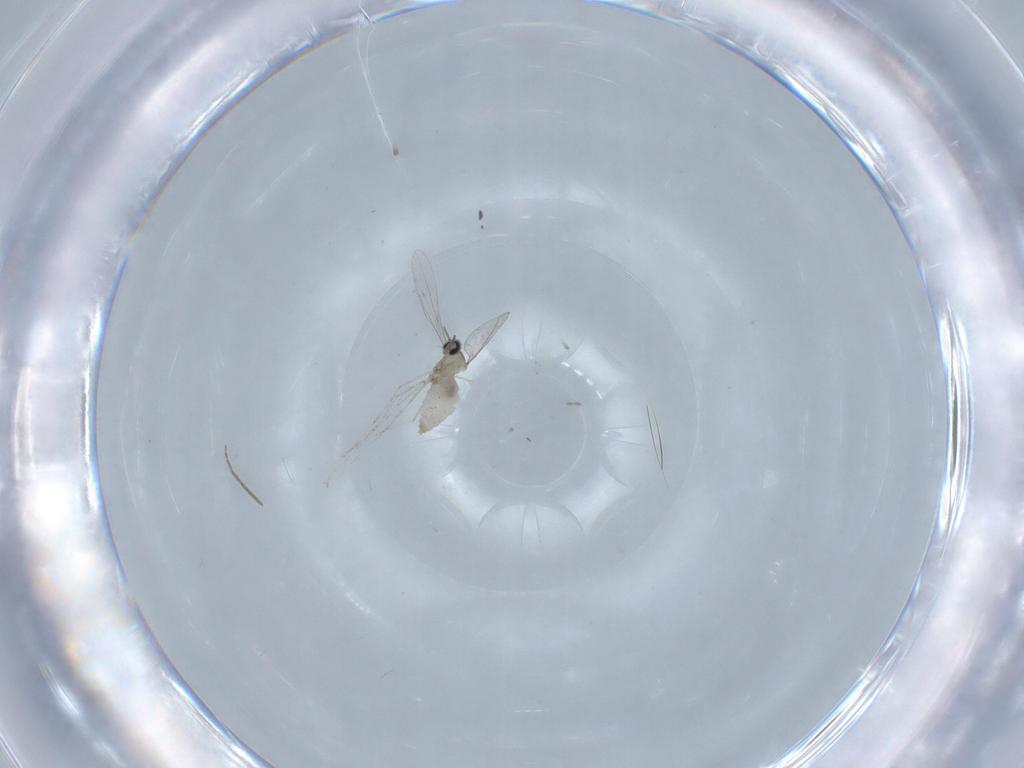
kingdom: Animalia
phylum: Arthropoda
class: Insecta
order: Diptera
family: Cecidomyiidae
